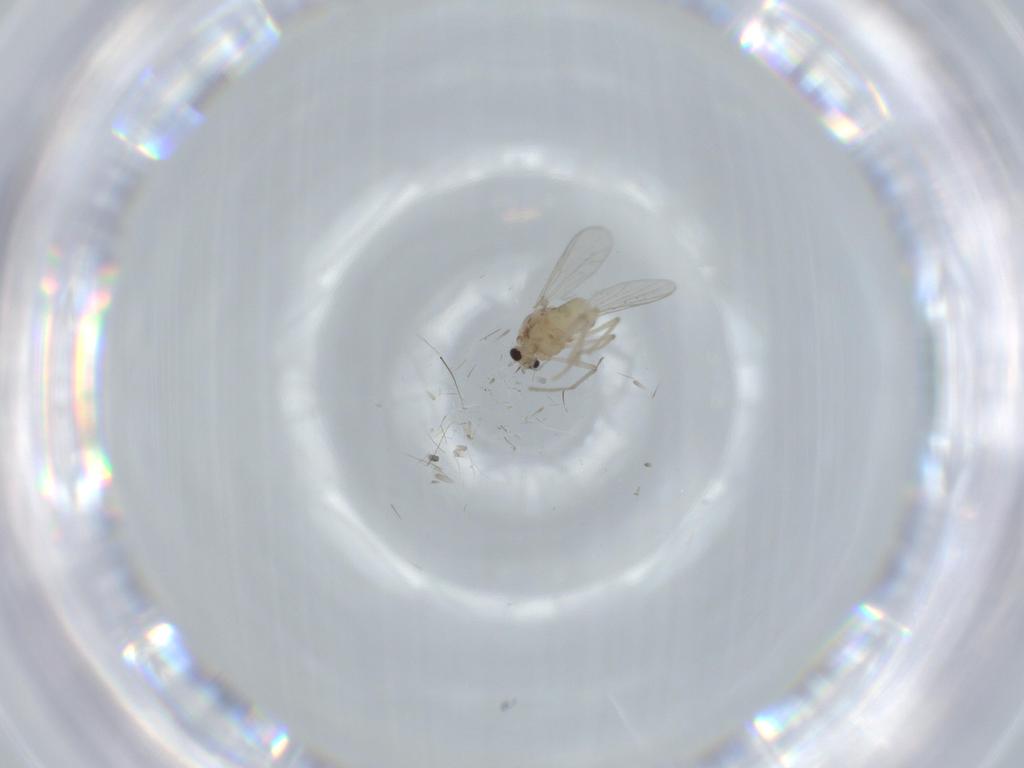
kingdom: Animalia
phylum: Arthropoda
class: Insecta
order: Diptera
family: Chironomidae
